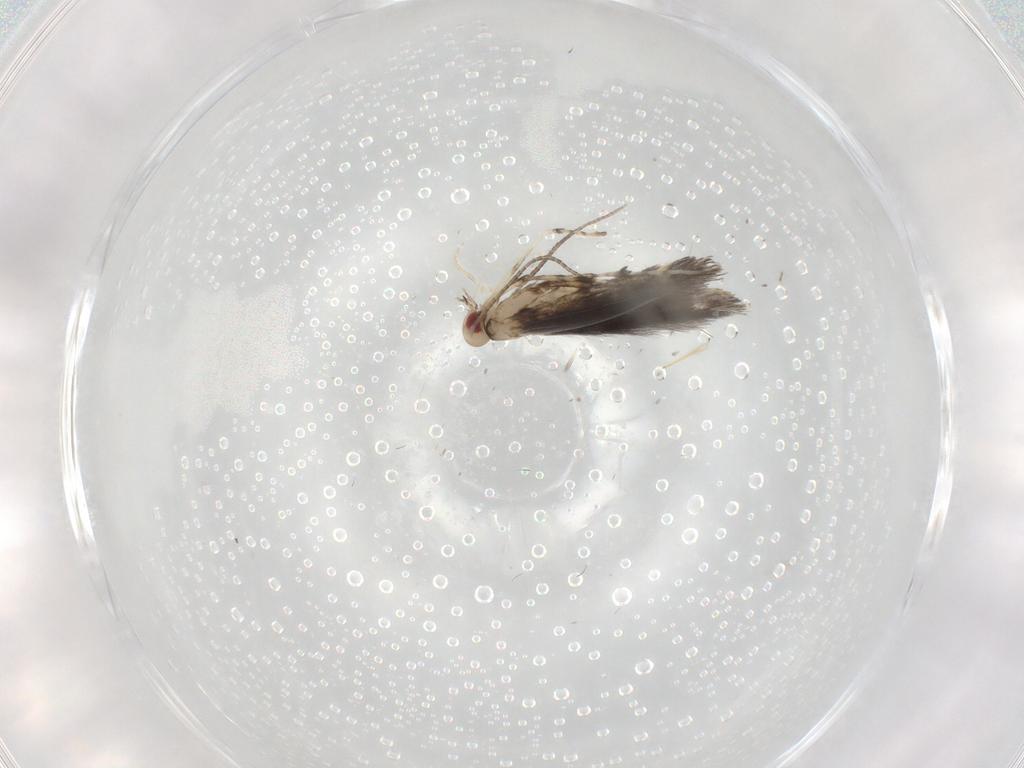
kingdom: Animalia
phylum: Arthropoda
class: Insecta
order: Lepidoptera
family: Gracillariidae
